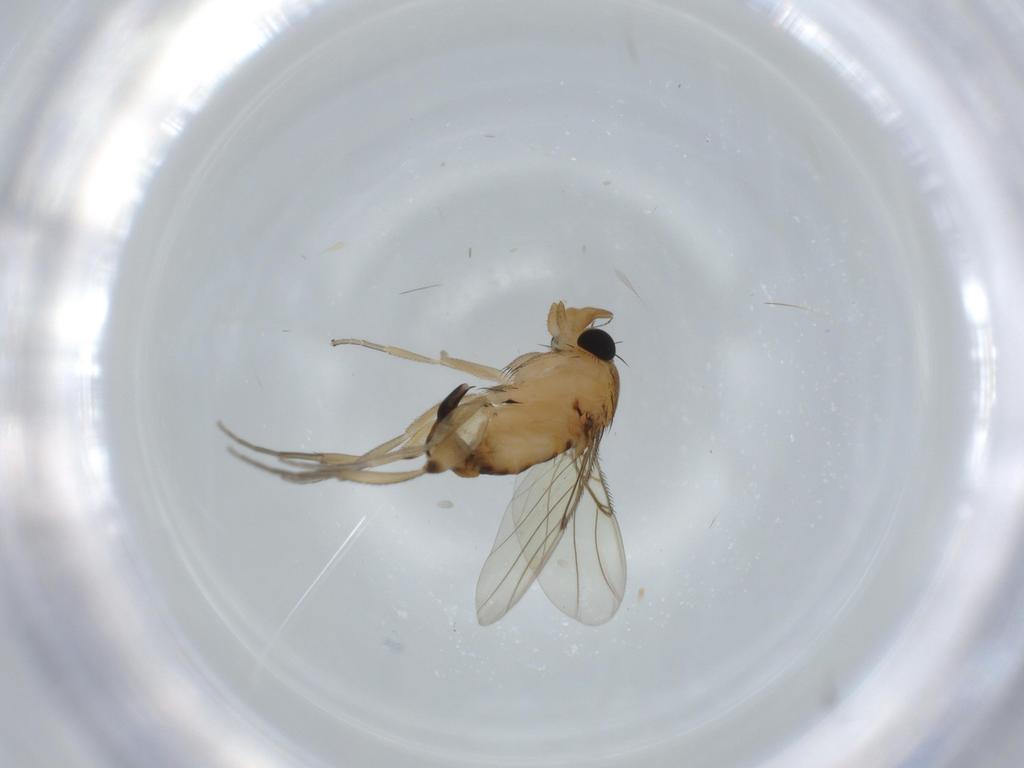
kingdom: Animalia
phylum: Arthropoda
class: Insecta
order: Diptera
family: Phoridae
